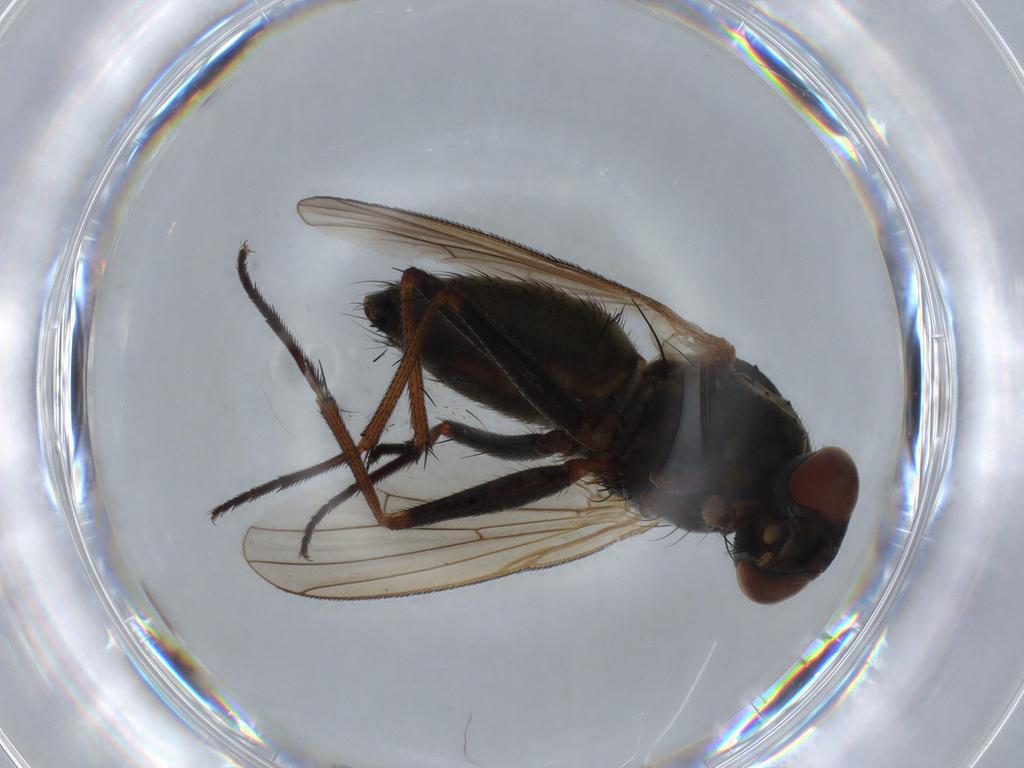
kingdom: Animalia
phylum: Arthropoda
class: Insecta
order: Diptera
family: Muscidae
